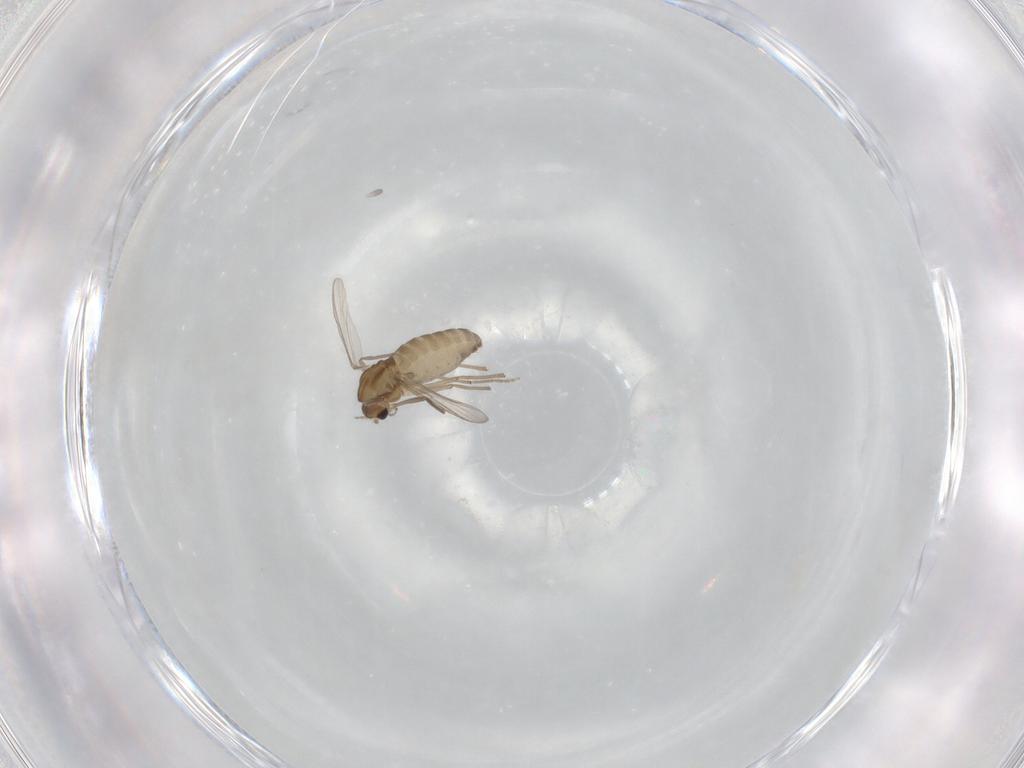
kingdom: Animalia
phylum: Arthropoda
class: Insecta
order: Diptera
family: Chironomidae
